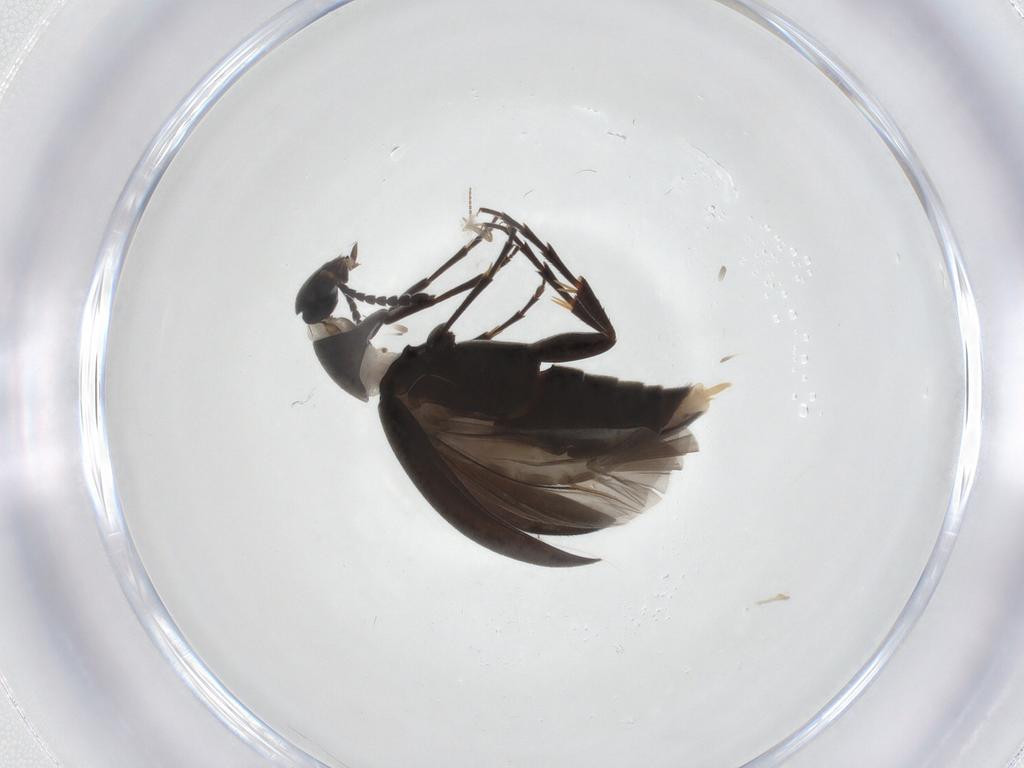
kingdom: Animalia
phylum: Arthropoda
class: Insecta
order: Coleoptera
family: Scraptiidae
